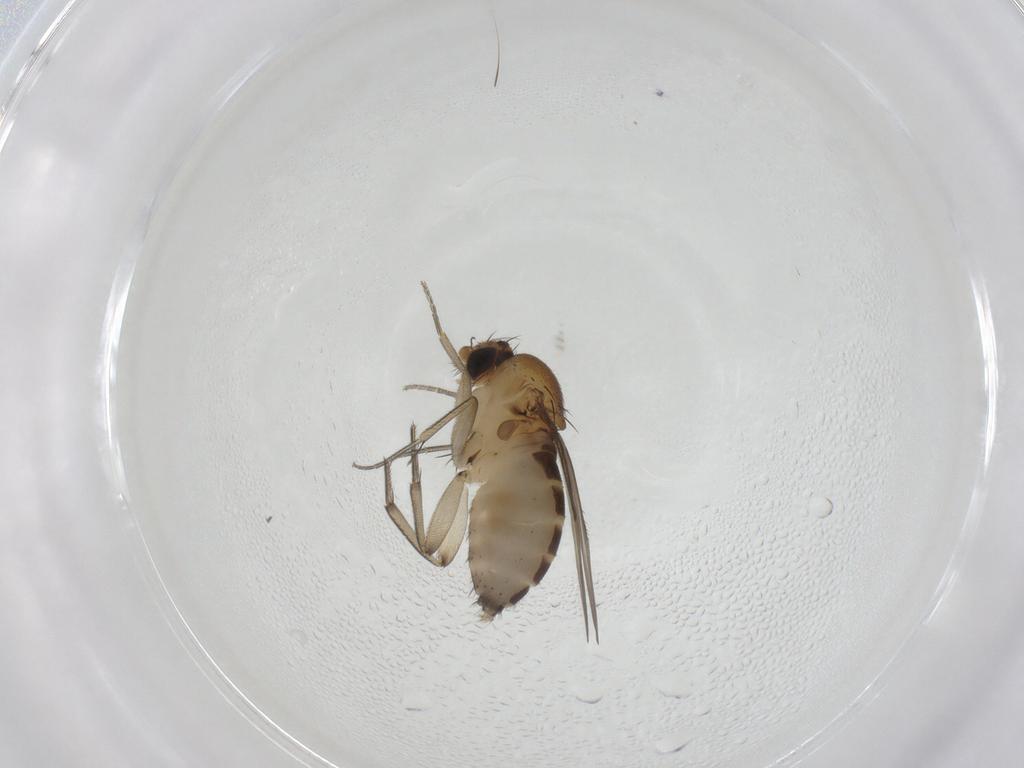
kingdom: Animalia
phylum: Arthropoda
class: Insecta
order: Diptera
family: Phoridae
